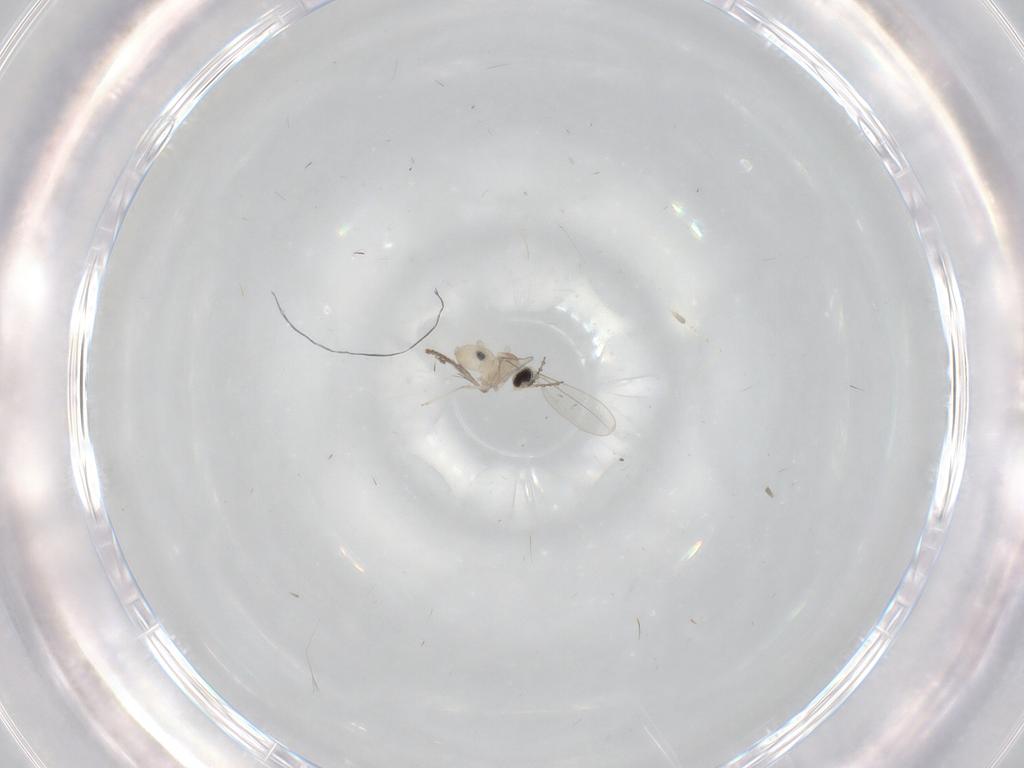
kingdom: Animalia
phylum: Arthropoda
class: Insecta
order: Diptera
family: Cecidomyiidae
